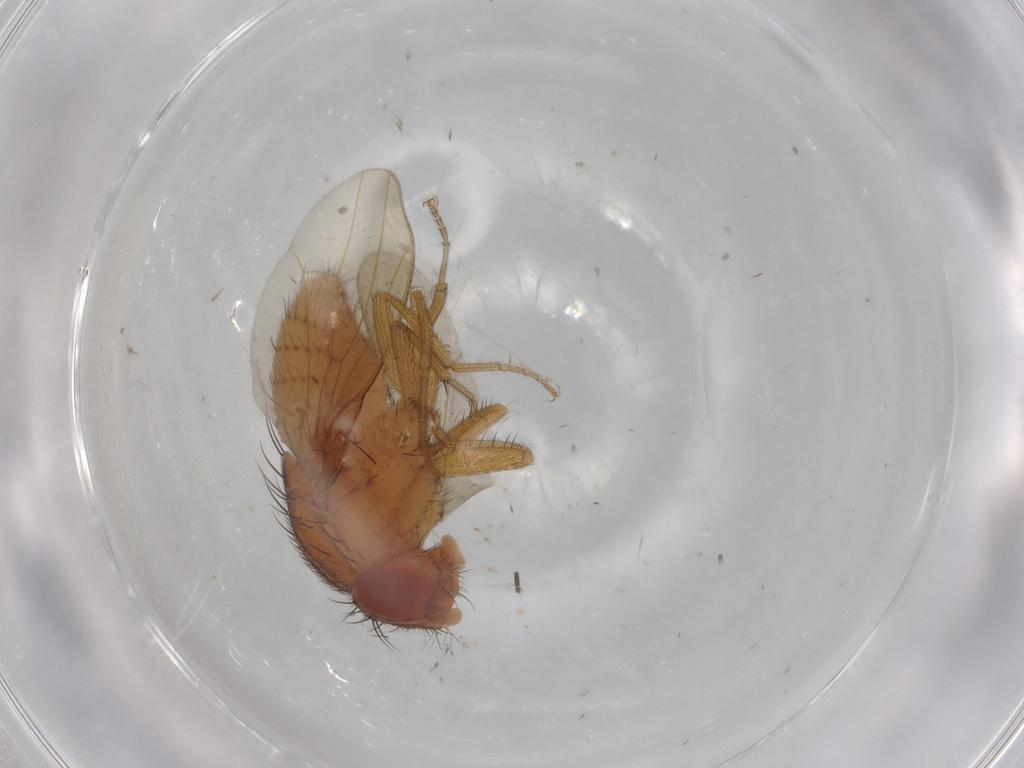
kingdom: Animalia
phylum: Arthropoda
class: Insecta
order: Diptera
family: Drosophilidae
